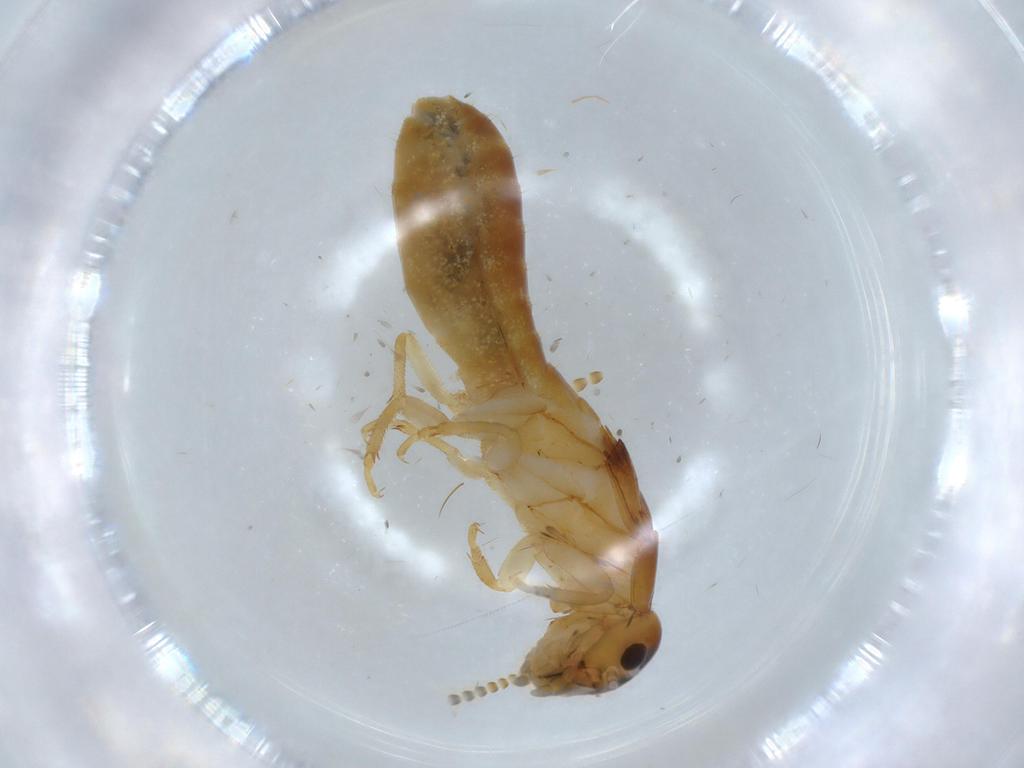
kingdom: Animalia
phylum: Arthropoda
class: Insecta
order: Blattodea
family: Kalotermitidae
